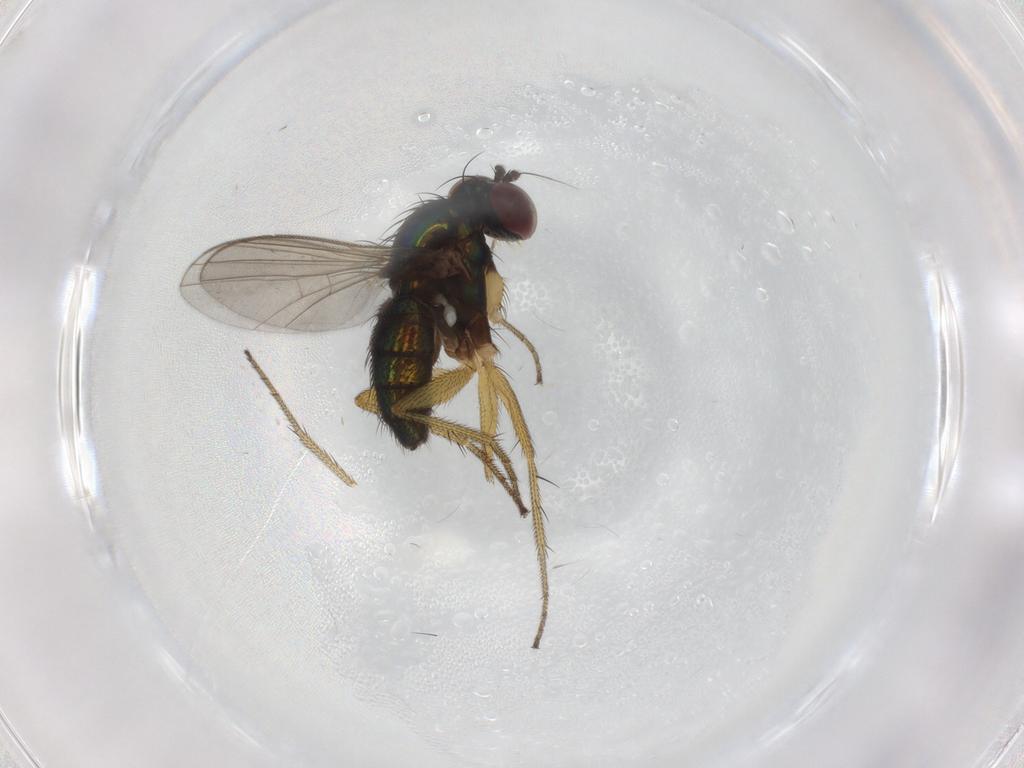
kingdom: Animalia
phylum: Arthropoda
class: Insecta
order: Diptera
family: Dolichopodidae
